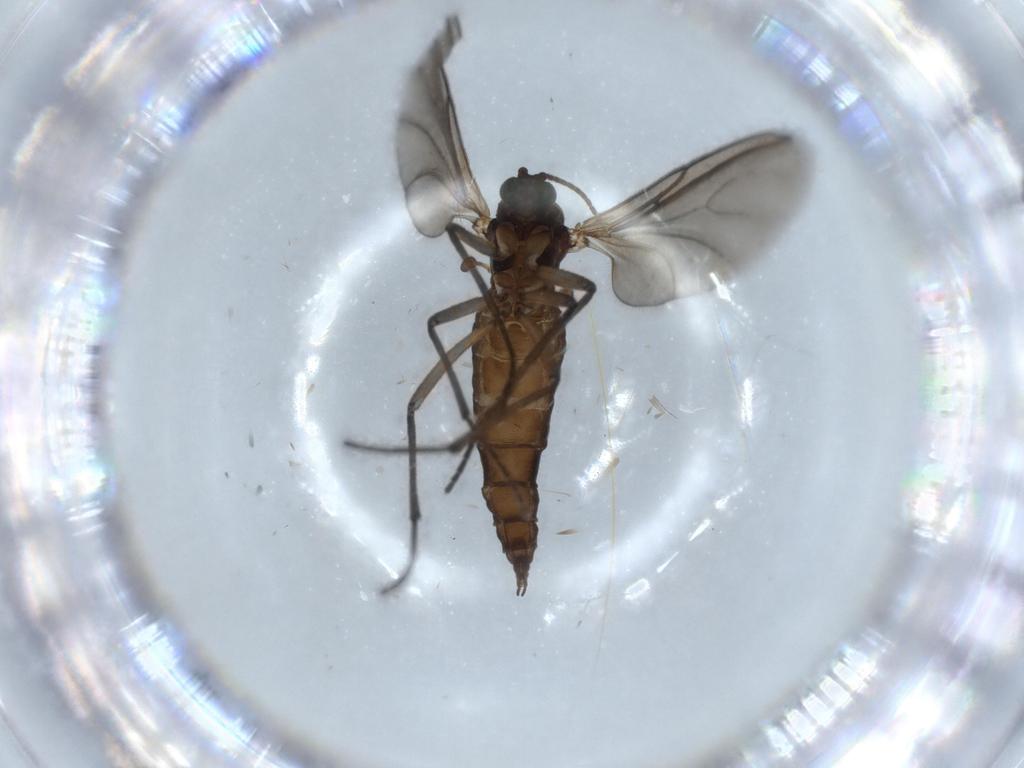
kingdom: Animalia
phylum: Arthropoda
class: Insecta
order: Diptera
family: Sciaridae
